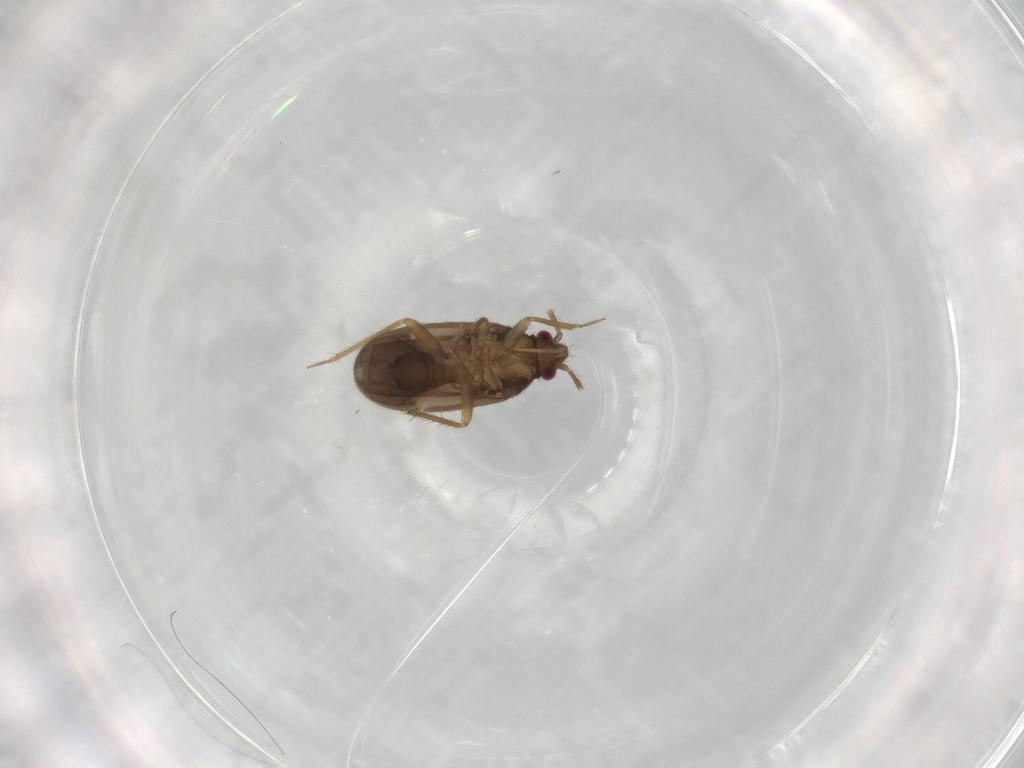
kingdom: Animalia
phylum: Arthropoda
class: Insecta
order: Hemiptera
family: Ceratocombidae
